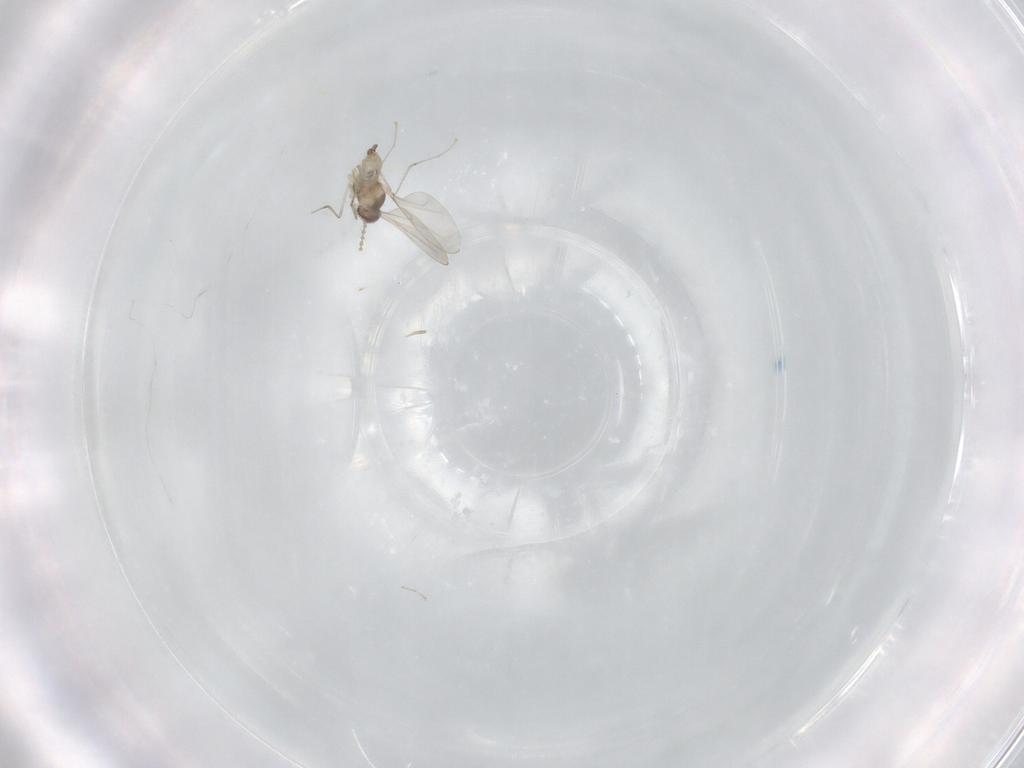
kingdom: Animalia
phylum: Arthropoda
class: Insecta
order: Diptera
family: Cecidomyiidae
